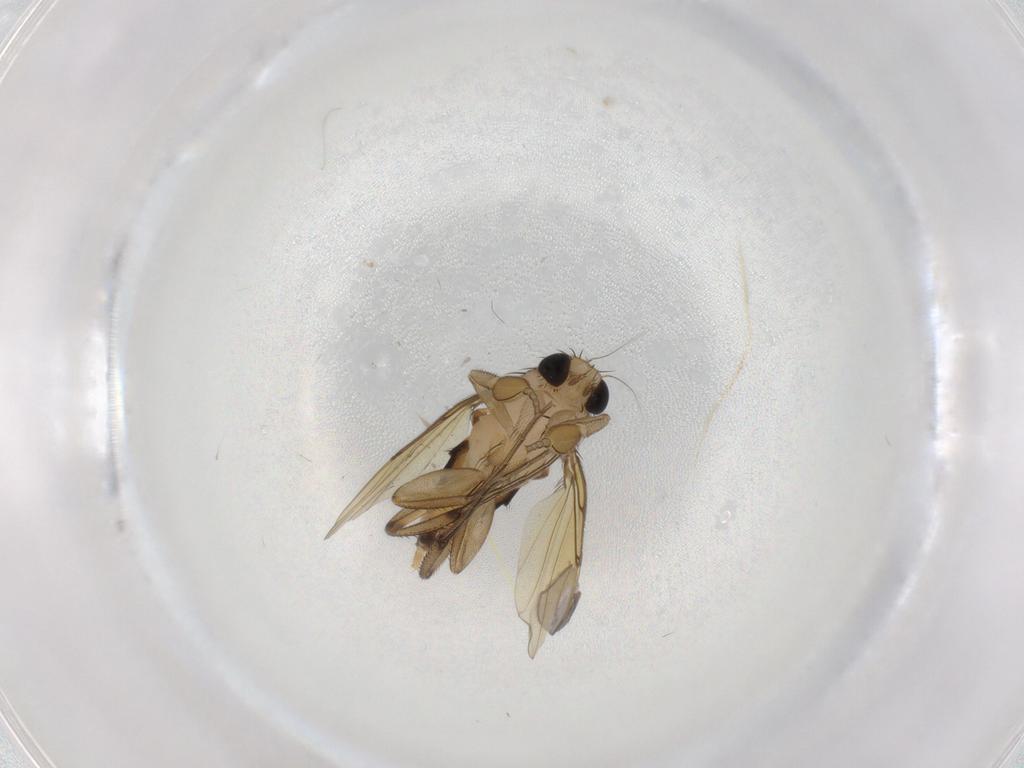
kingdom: Animalia
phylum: Arthropoda
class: Insecta
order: Diptera
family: Phoridae
